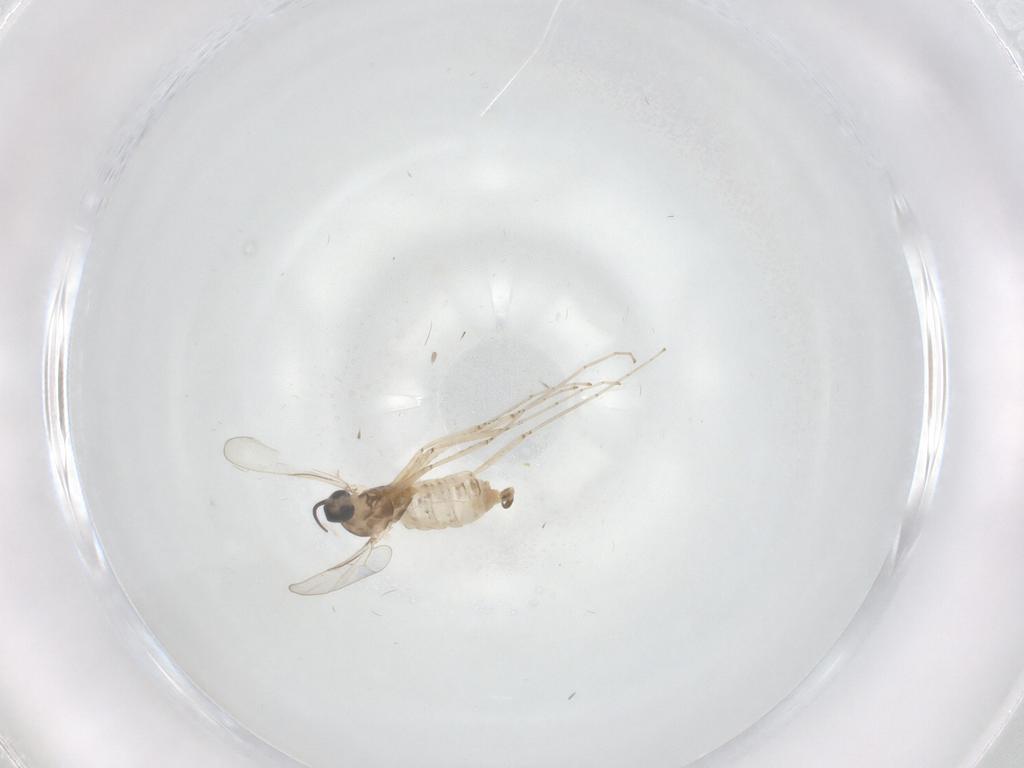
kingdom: Animalia
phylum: Arthropoda
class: Insecta
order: Diptera
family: Cecidomyiidae
